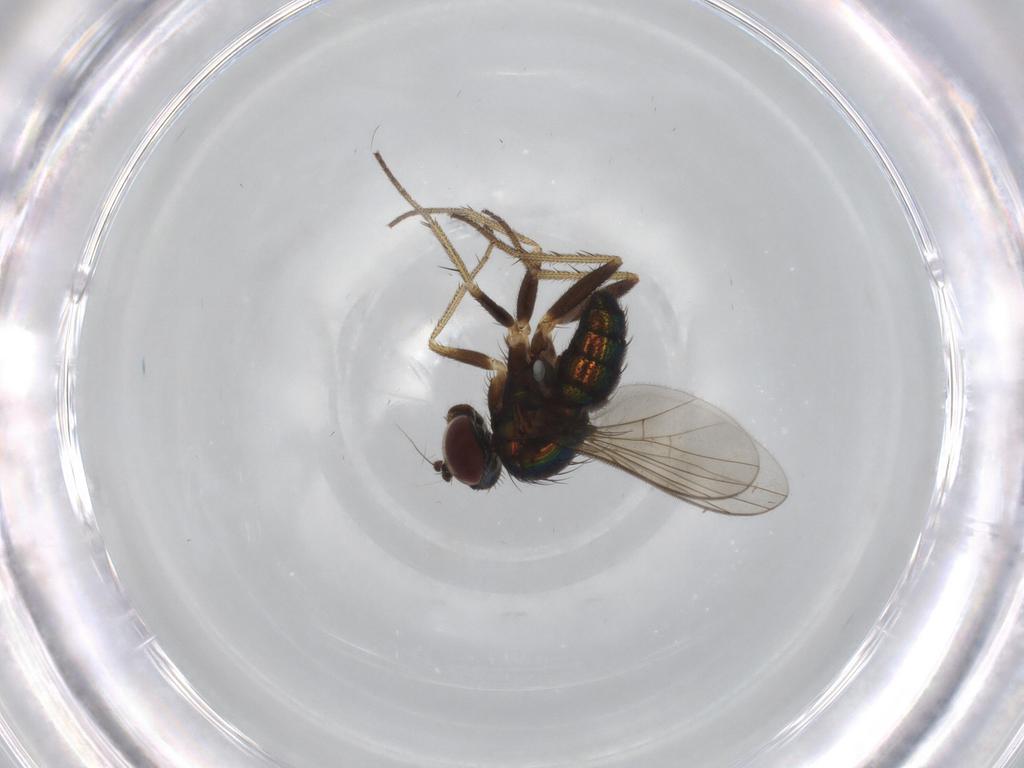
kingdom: Animalia
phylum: Arthropoda
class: Insecta
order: Diptera
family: Dolichopodidae
